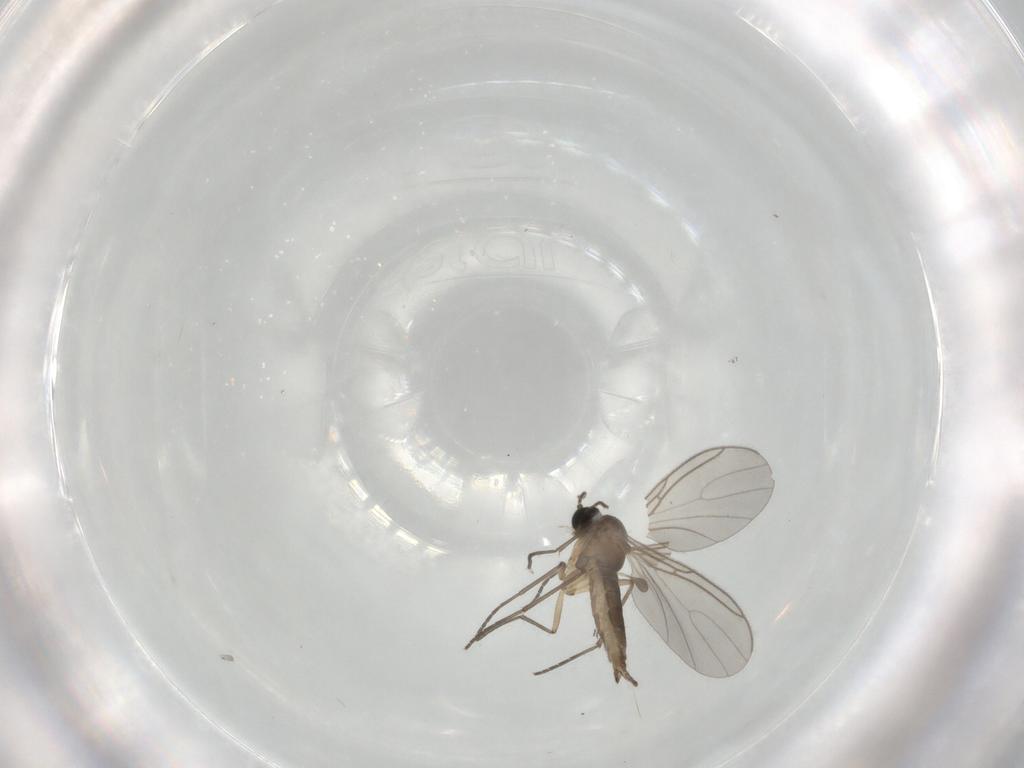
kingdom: Animalia
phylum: Arthropoda
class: Insecta
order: Diptera
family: Sciaridae
